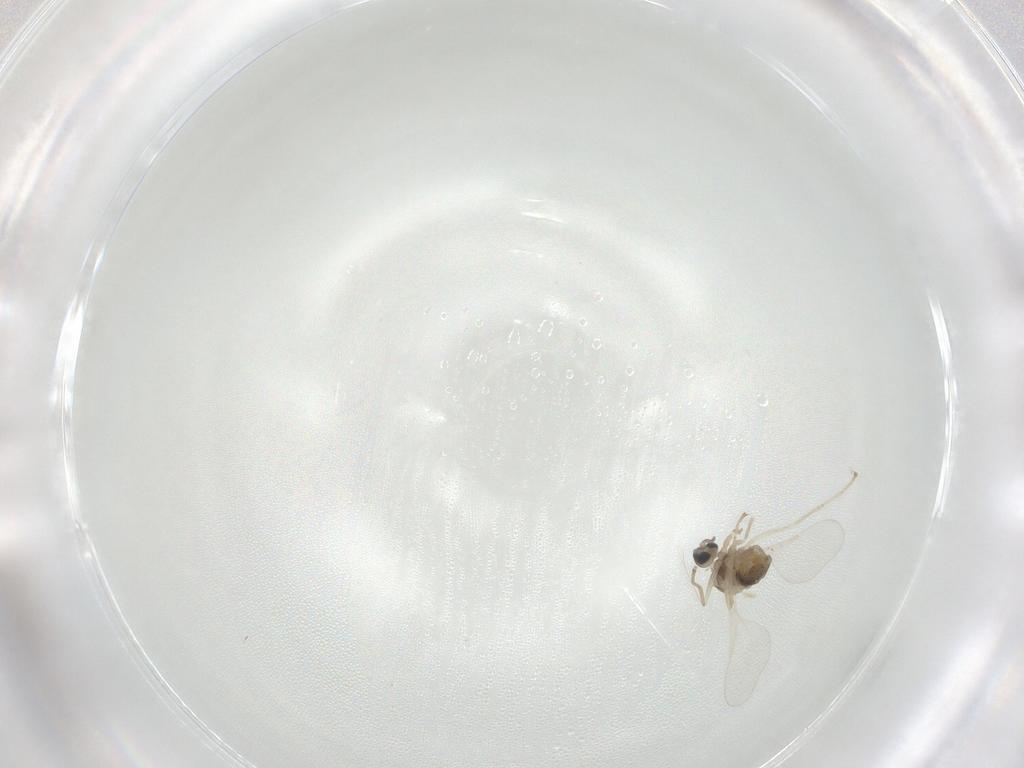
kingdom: Animalia
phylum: Arthropoda
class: Insecta
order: Diptera
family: Cecidomyiidae
